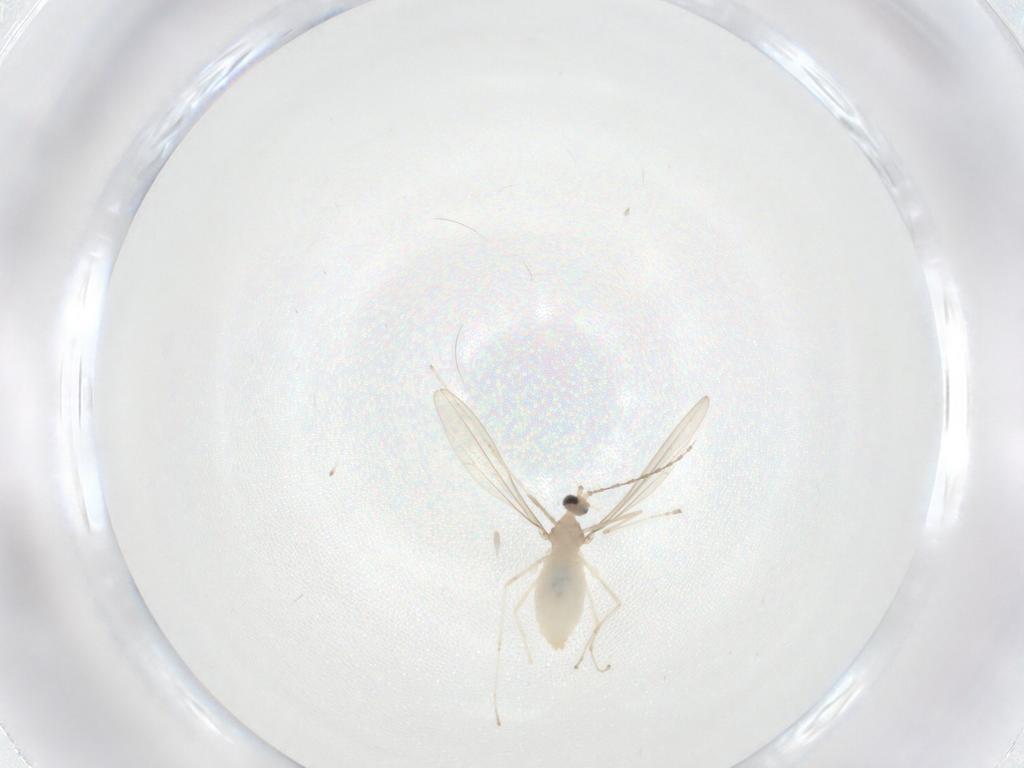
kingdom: Animalia
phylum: Arthropoda
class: Insecta
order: Diptera
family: Cecidomyiidae
